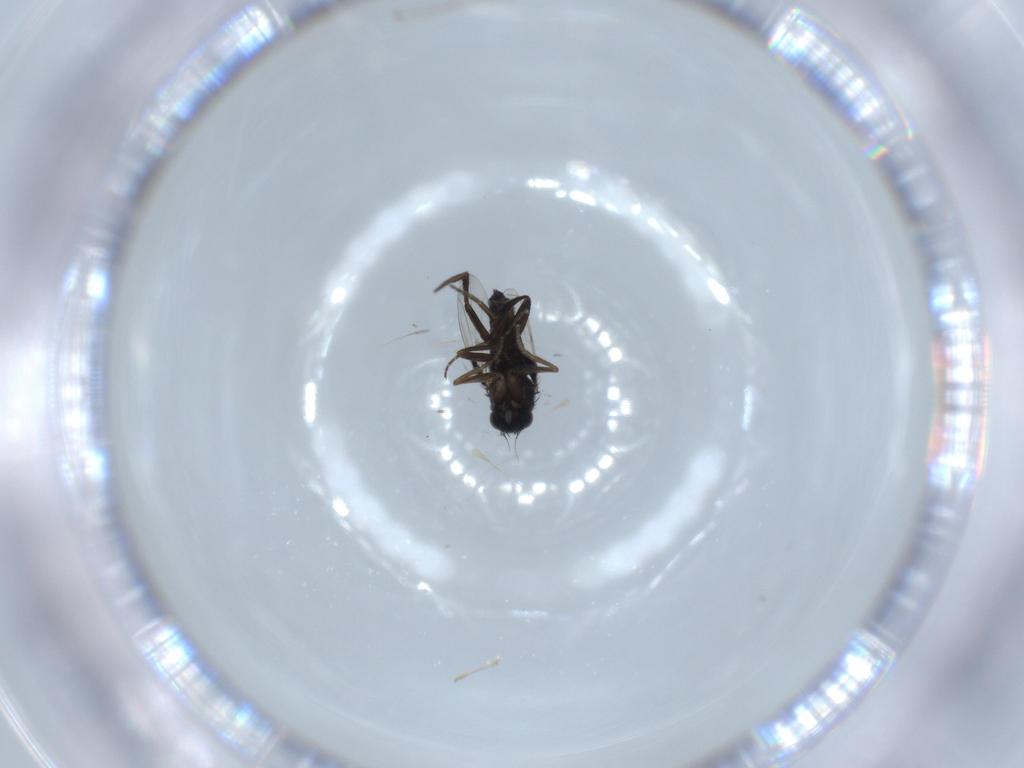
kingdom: Animalia
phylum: Arthropoda
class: Insecta
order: Diptera
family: Phoridae
